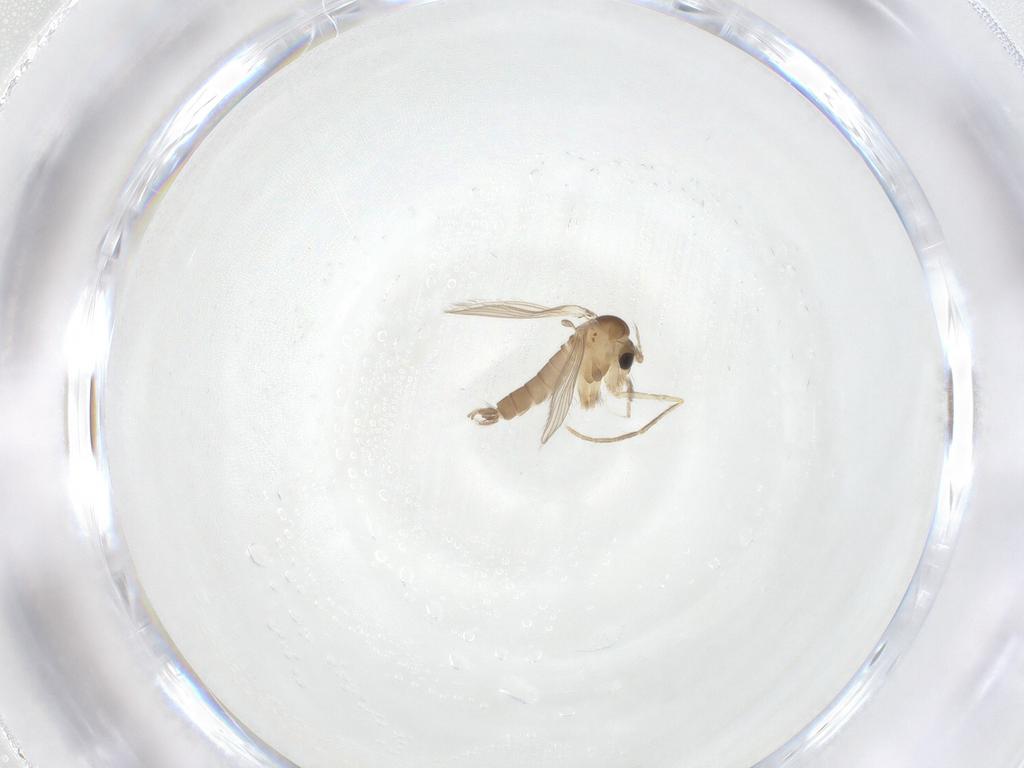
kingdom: Animalia
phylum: Arthropoda
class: Insecta
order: Diptera
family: Psychodidae
